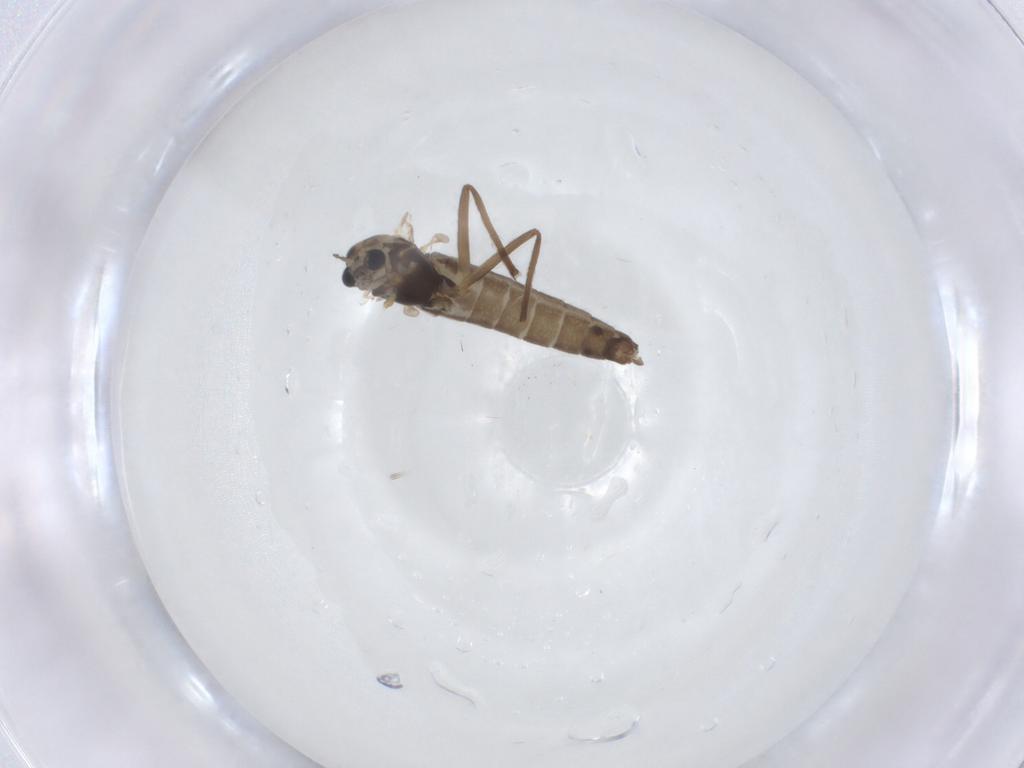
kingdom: Animalia
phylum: Arthropoda
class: Insecta
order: Diptera
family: Chironomidae
